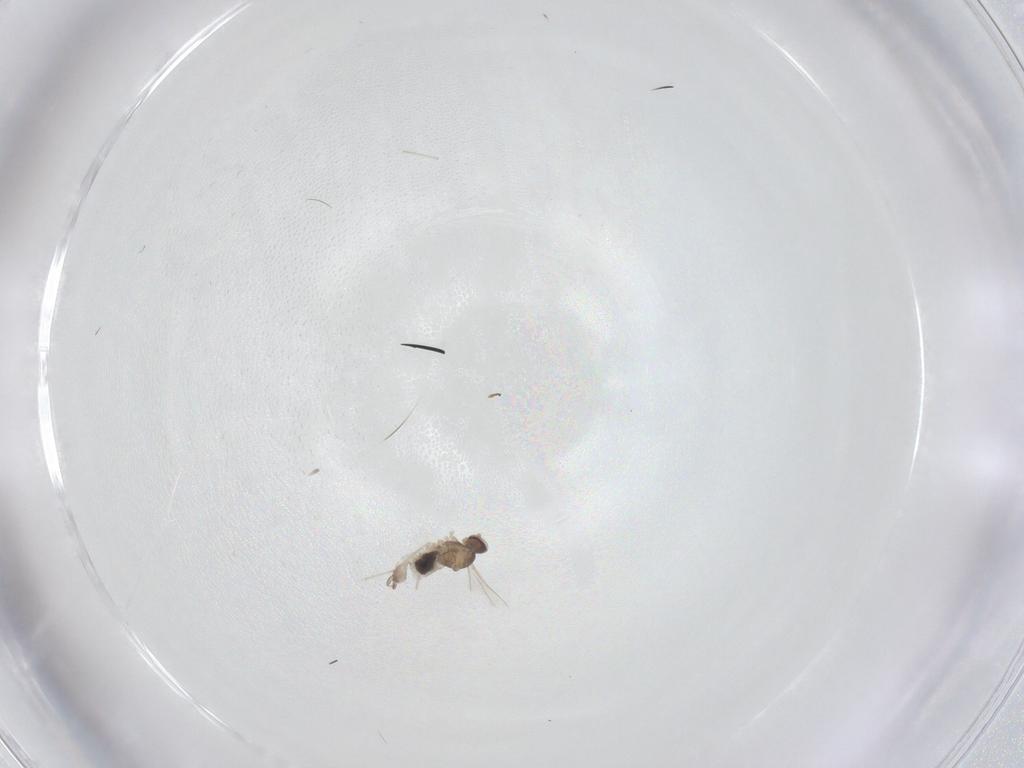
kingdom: Animalia
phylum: Arthropoda
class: Insecta
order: Diptera
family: Cecidomyiidae
